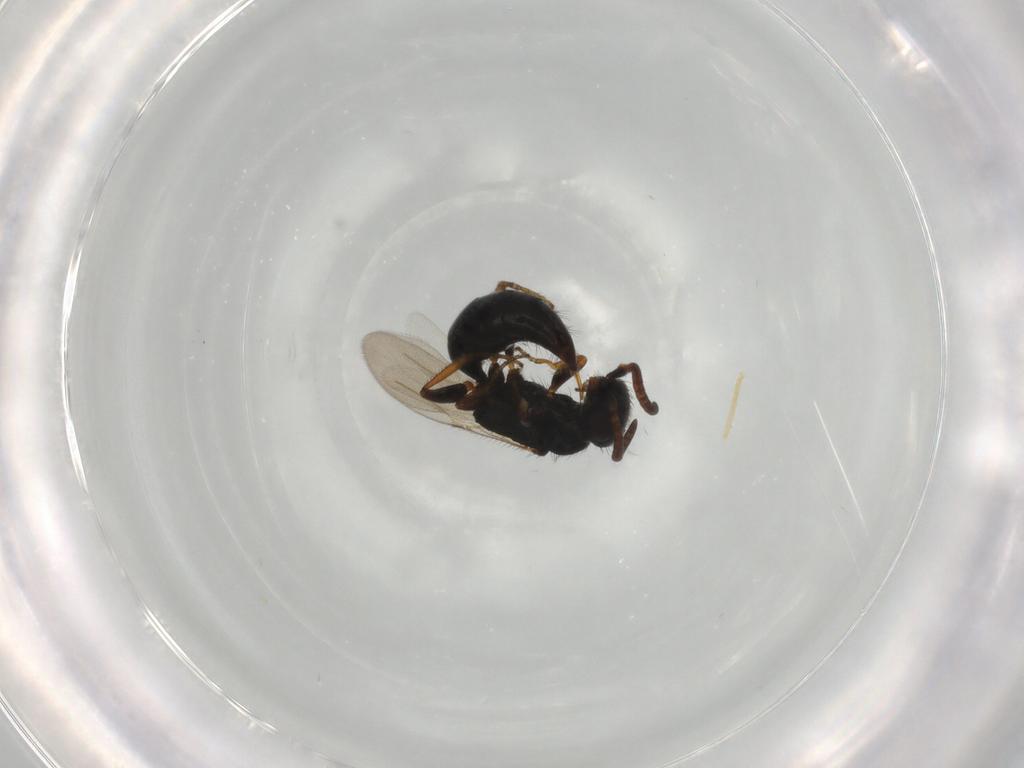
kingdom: Animalia
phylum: Arthropoda
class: Insecta
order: Hymenoptera
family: Bethylidae
